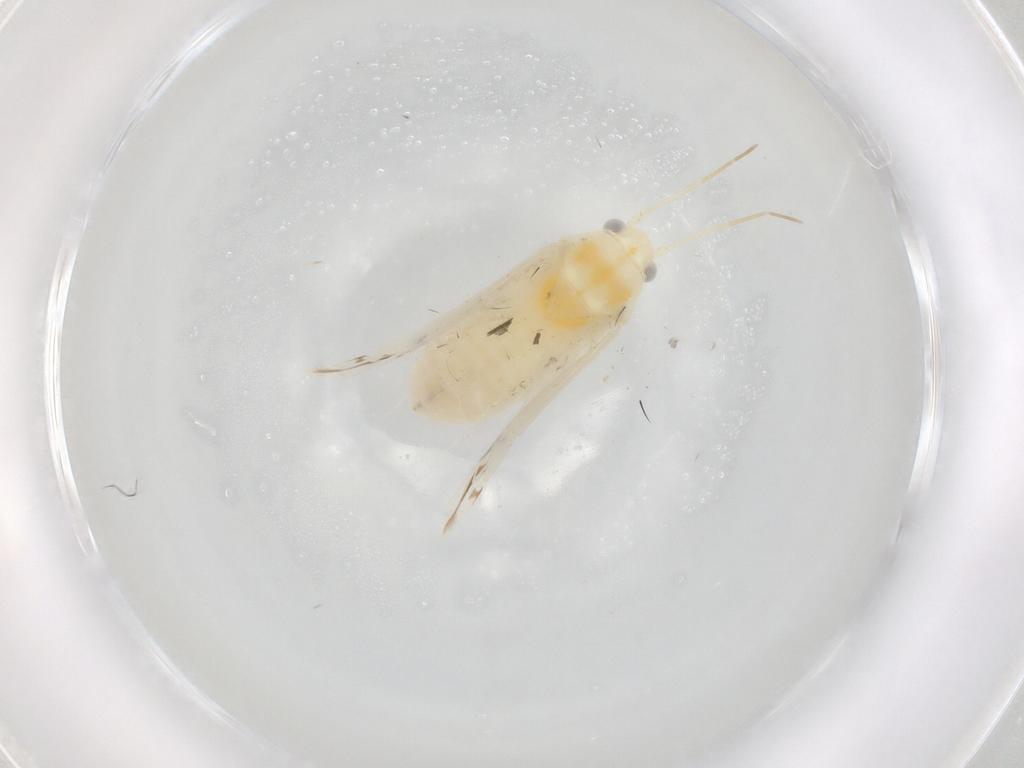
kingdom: Animalia
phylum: Arthropoda
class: Insecta
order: Hemiptera
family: Miridae
